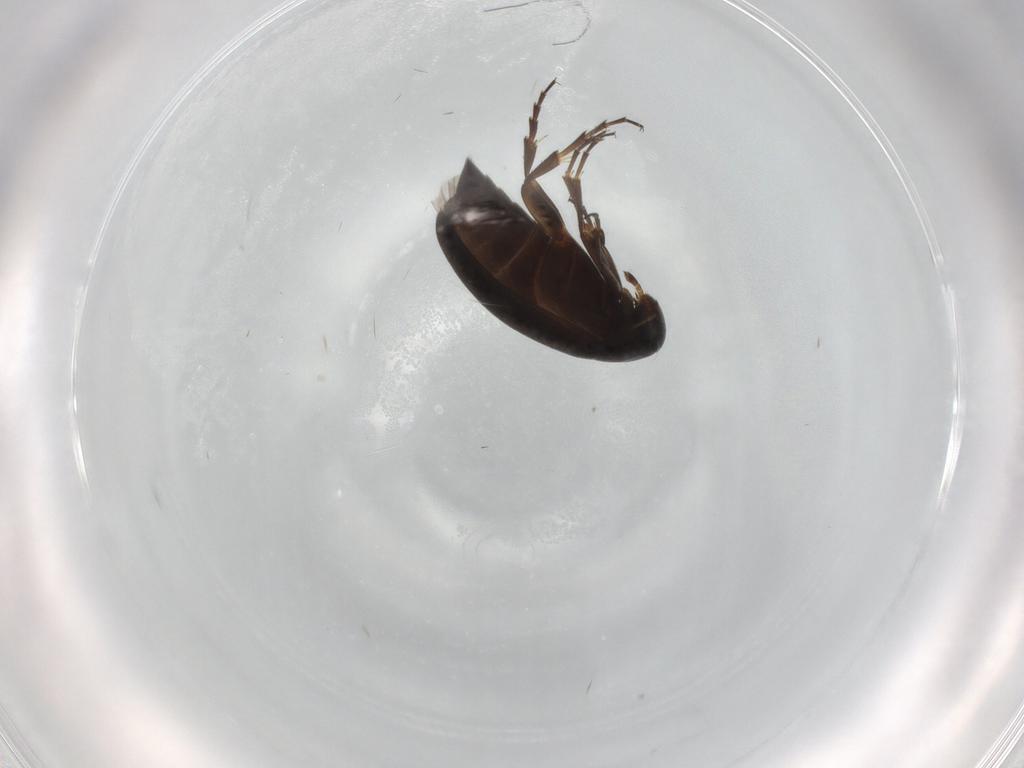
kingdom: Animalia
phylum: Arthropoda
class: Insecta
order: Coleoptera
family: Scraptiidae
